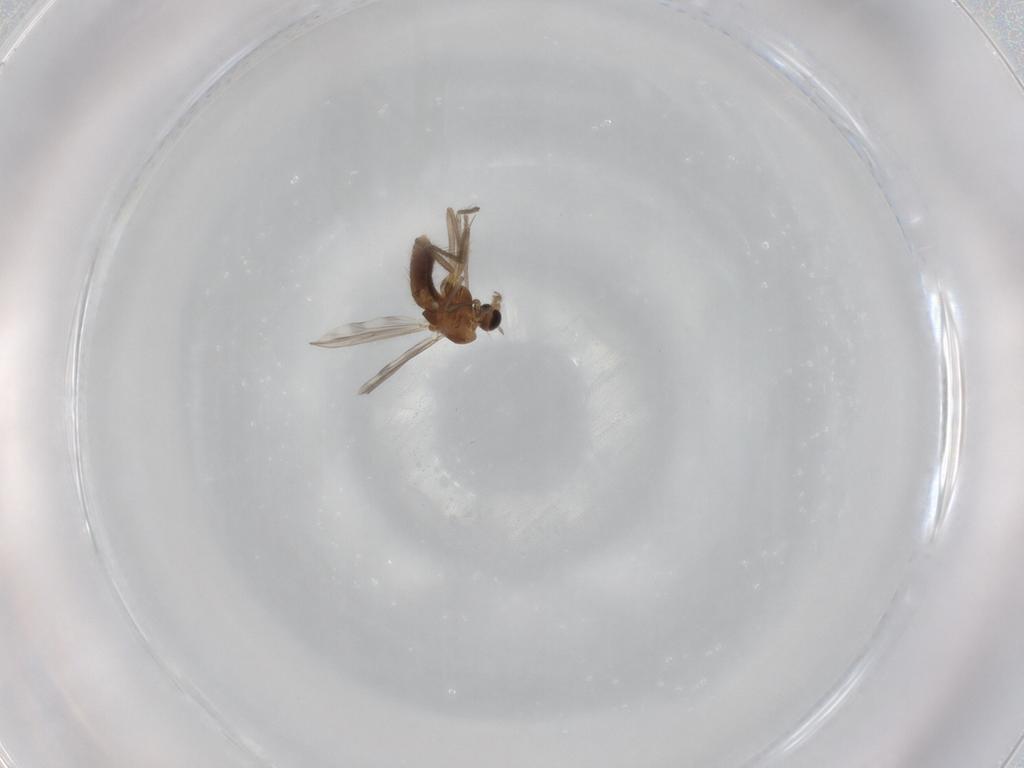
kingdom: Animalia
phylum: Arthropoda
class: Insecta
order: Diptera
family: Chironomidae
